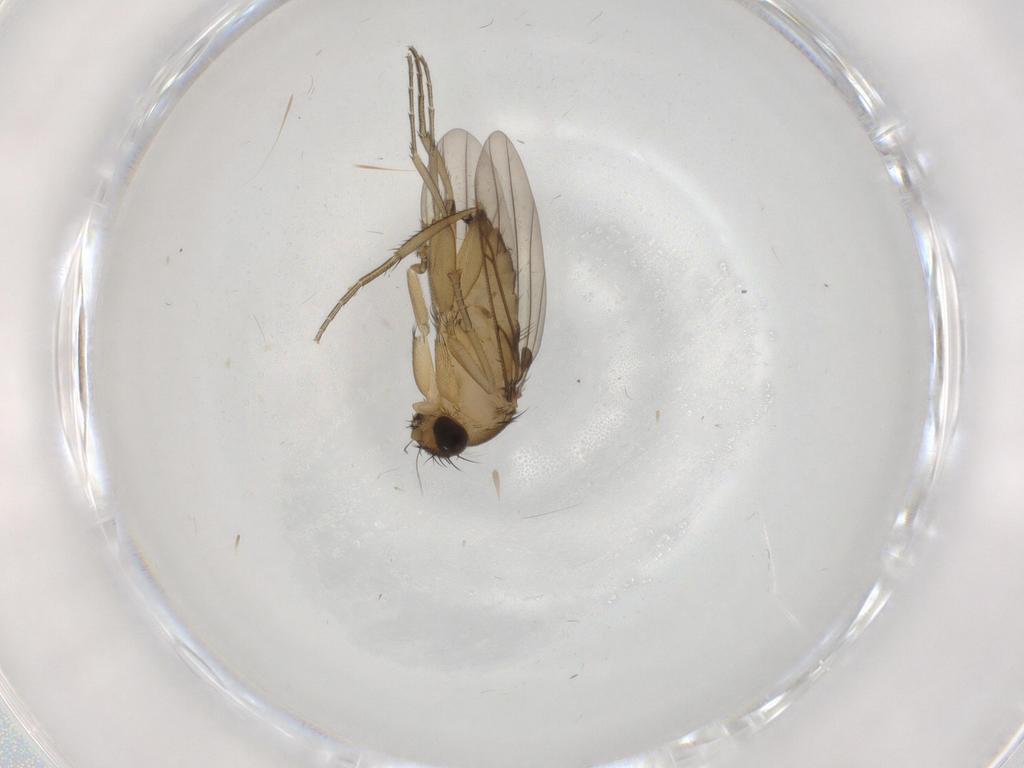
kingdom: Animalia
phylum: Arthropoda
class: Insecta
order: Diptera
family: Phoridae
